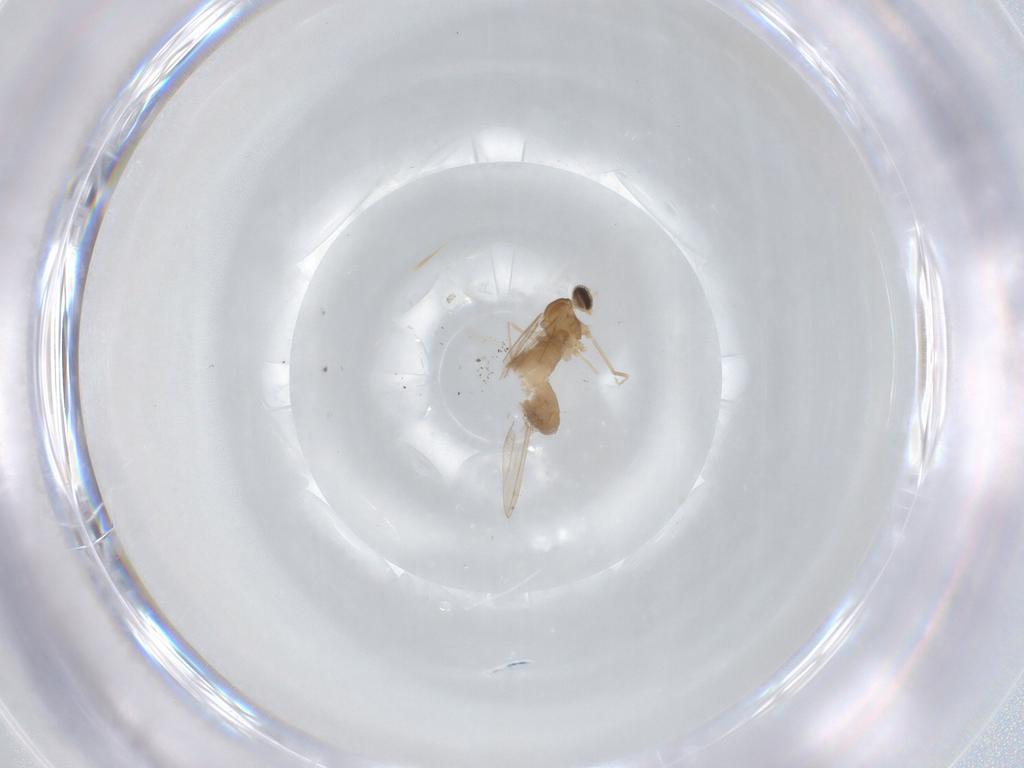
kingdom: Animalia
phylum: Arthropoda
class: Insecta
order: Diptera
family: Cecidomyiidae
